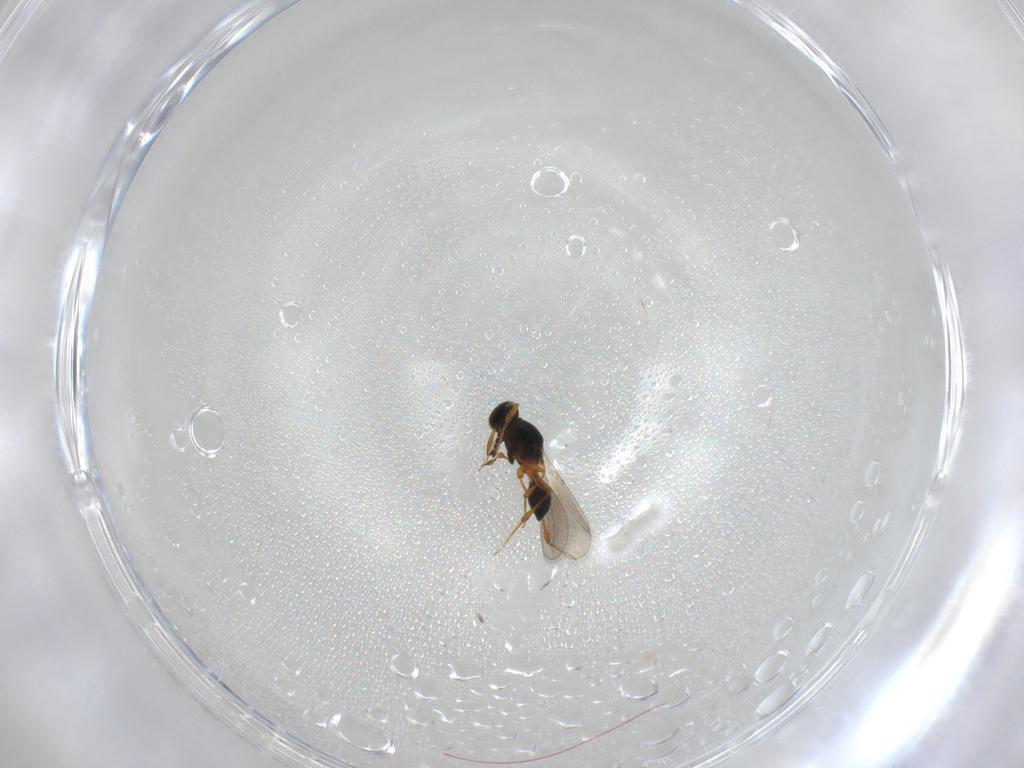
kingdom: Animalia
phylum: Arthropoda
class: Insecta
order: Hymenoptera
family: Platygastridae
